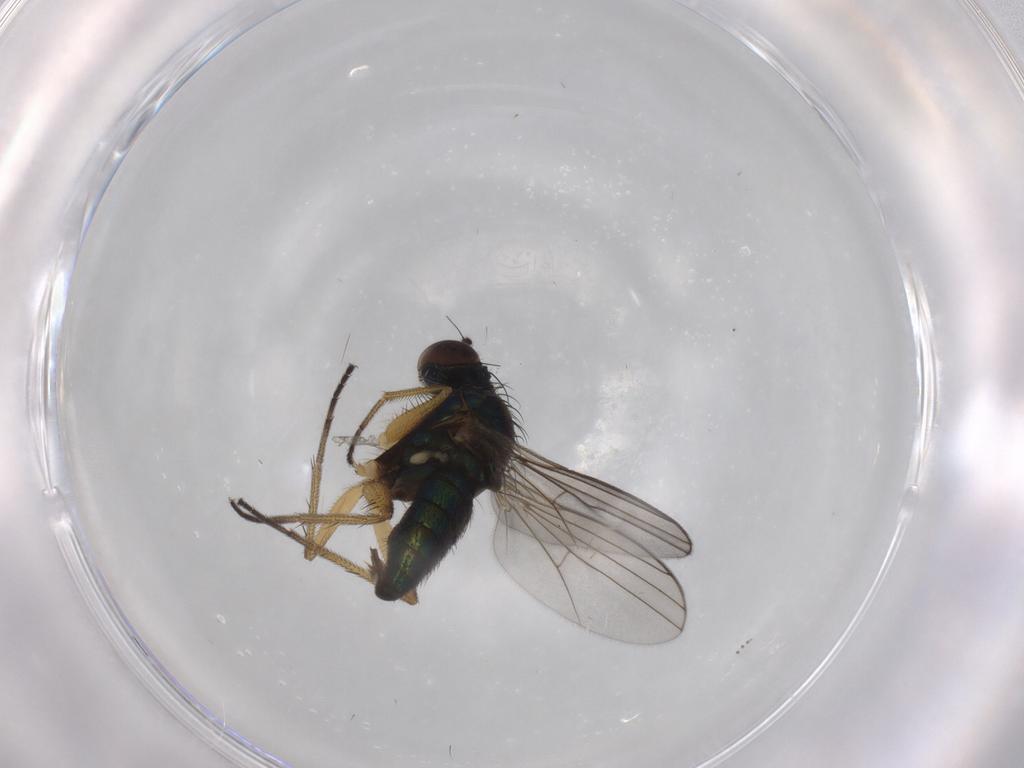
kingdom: Animalia
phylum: Arthropoda
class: Insecta
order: Diptera
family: Dolichopodidae
